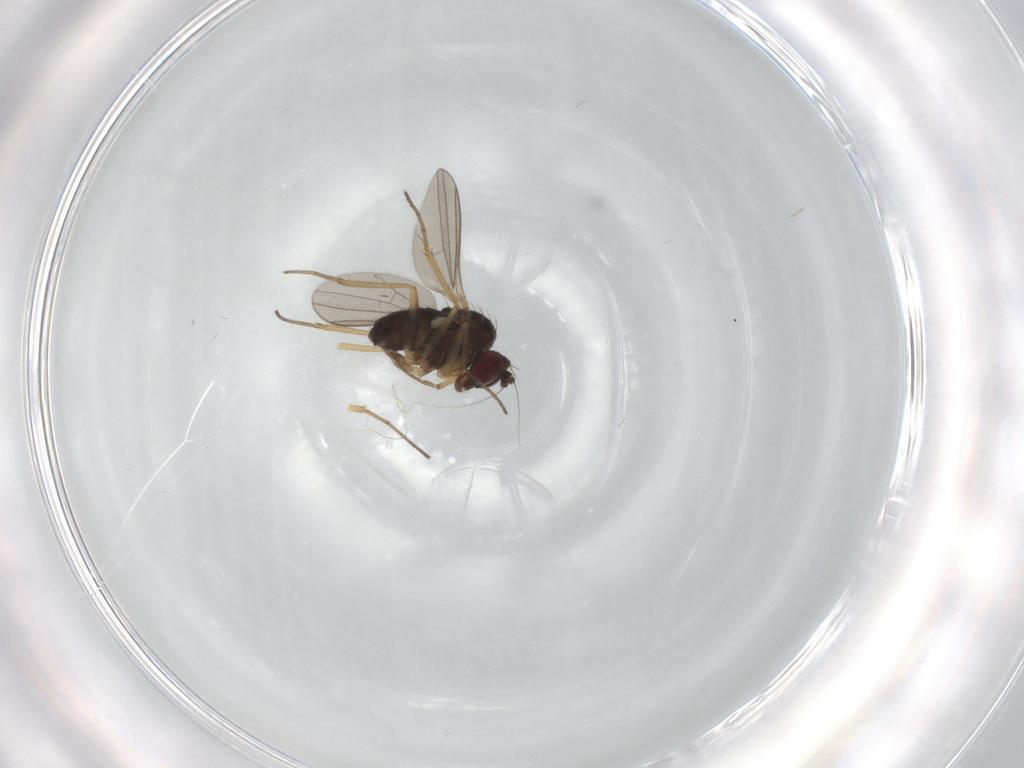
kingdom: Animalia
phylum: Arthropoda
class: Insecta
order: Diptera
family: Dolichopodidae
